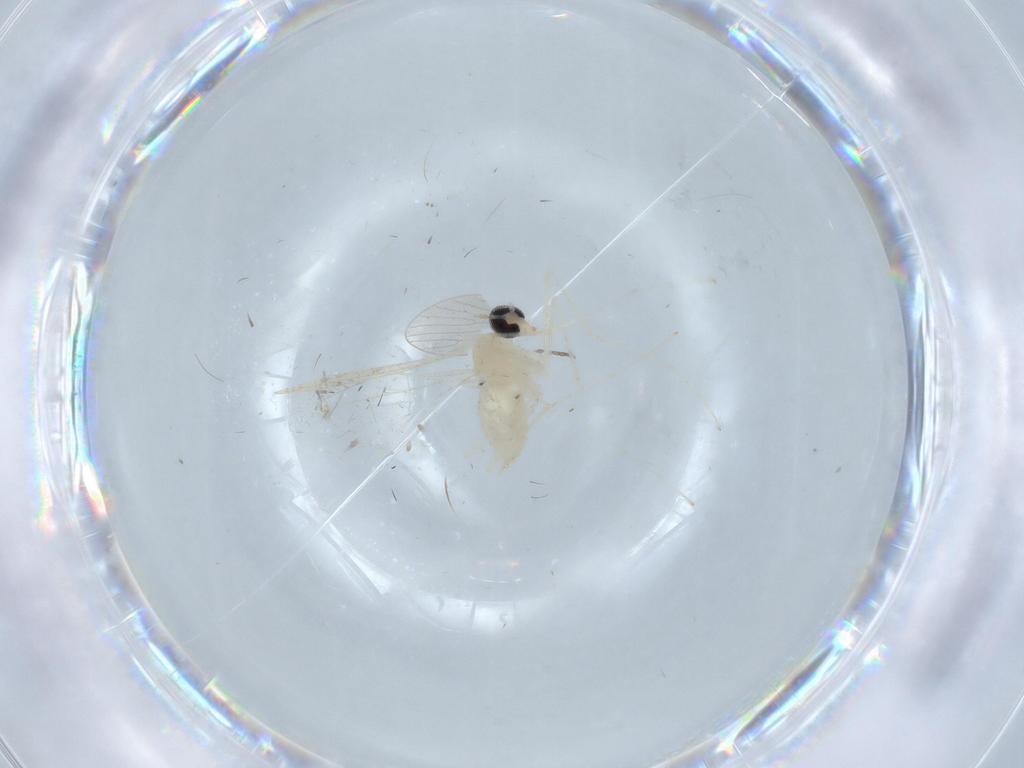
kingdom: Animalia
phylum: Arthropoda
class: Insecta
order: Diptera
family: Cecidomyiidae
